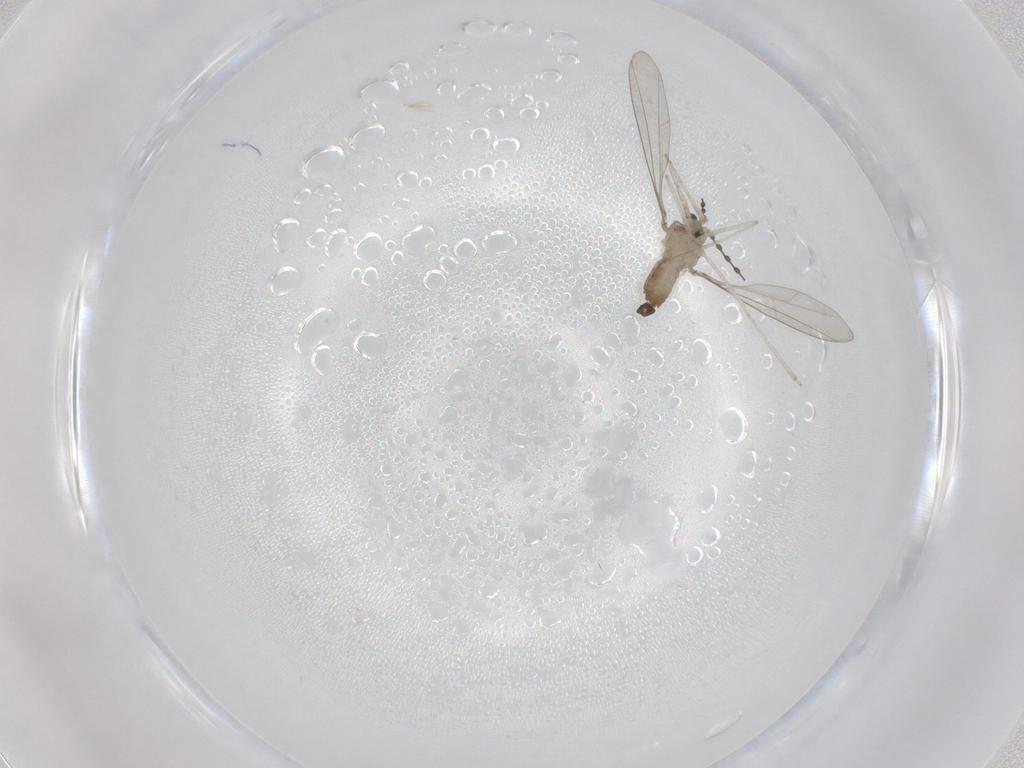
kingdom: Animalia
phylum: Arthropoda
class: Insecta
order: Diptera
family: Cecidomyiidae
